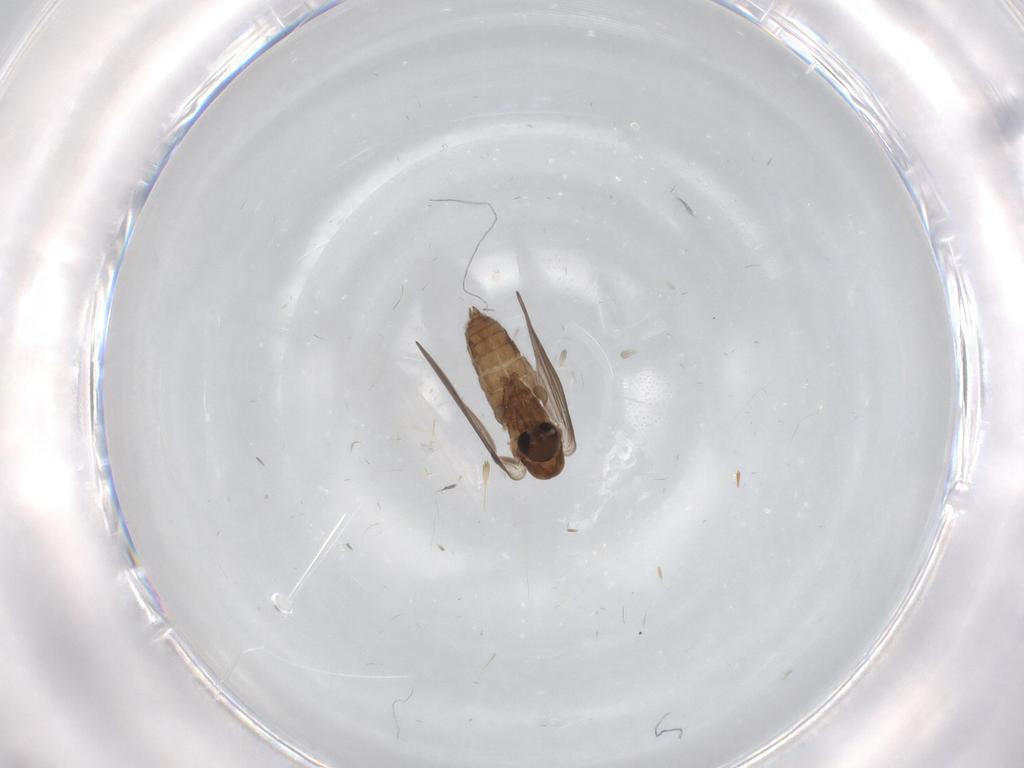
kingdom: Animalia
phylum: Arthropoda
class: Insecta
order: Diptera
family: Psychodidae
